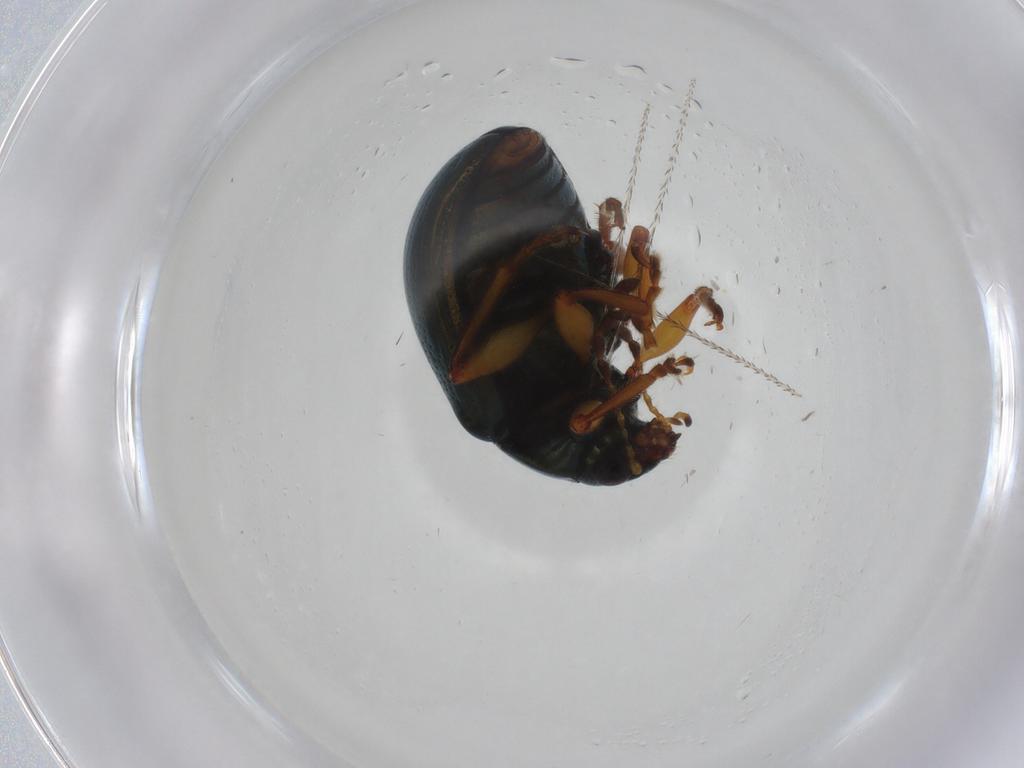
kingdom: Animalia
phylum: Arthropoda
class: Insecta
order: Coleoptera
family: Chrysomelidae
